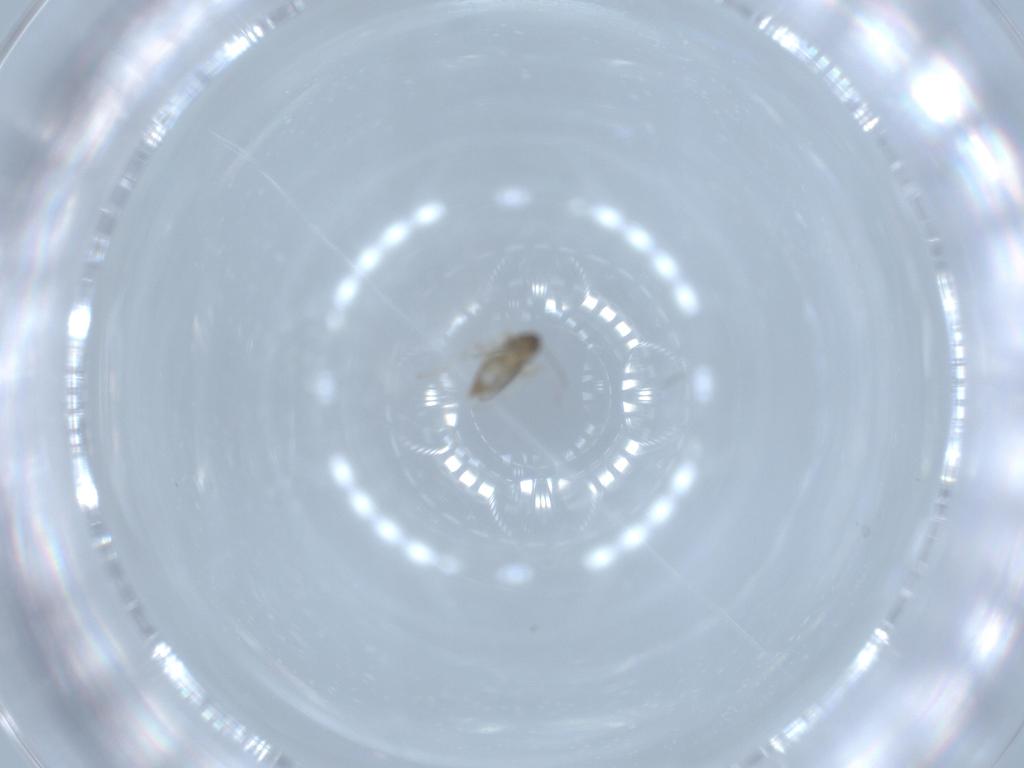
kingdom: Animalia
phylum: Arthropoda
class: Insecta
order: Diptera
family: Cecidomyiidae
